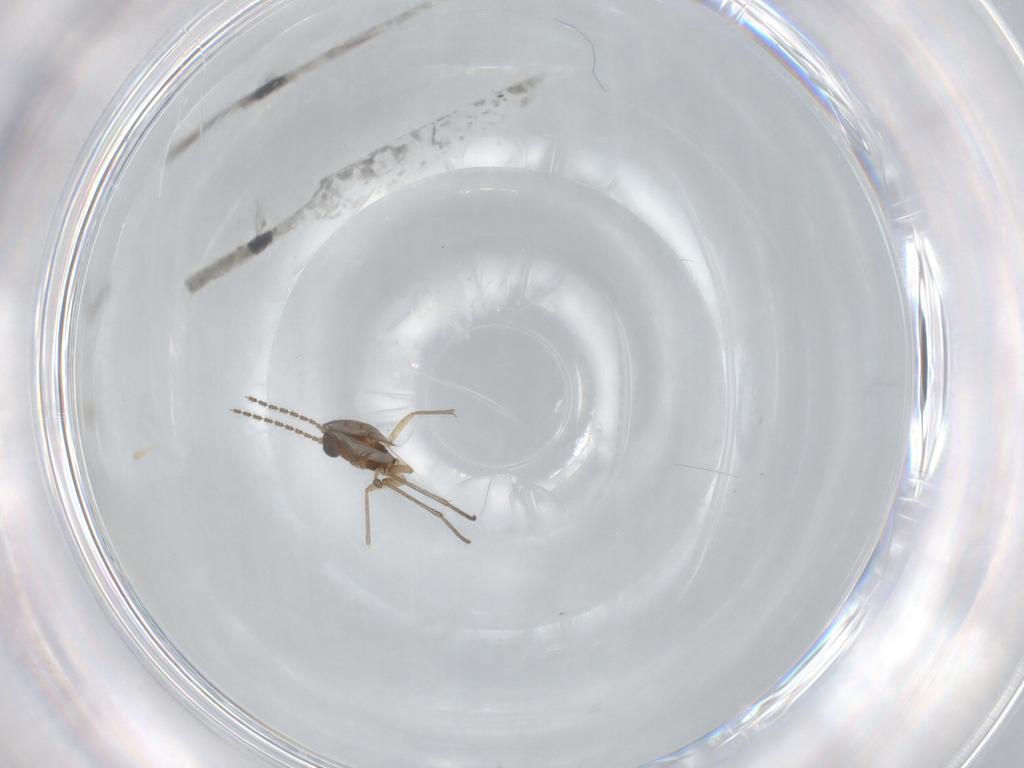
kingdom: Animalia
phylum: Arthropoda
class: Insecta
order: Diptera
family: Sciaridae
